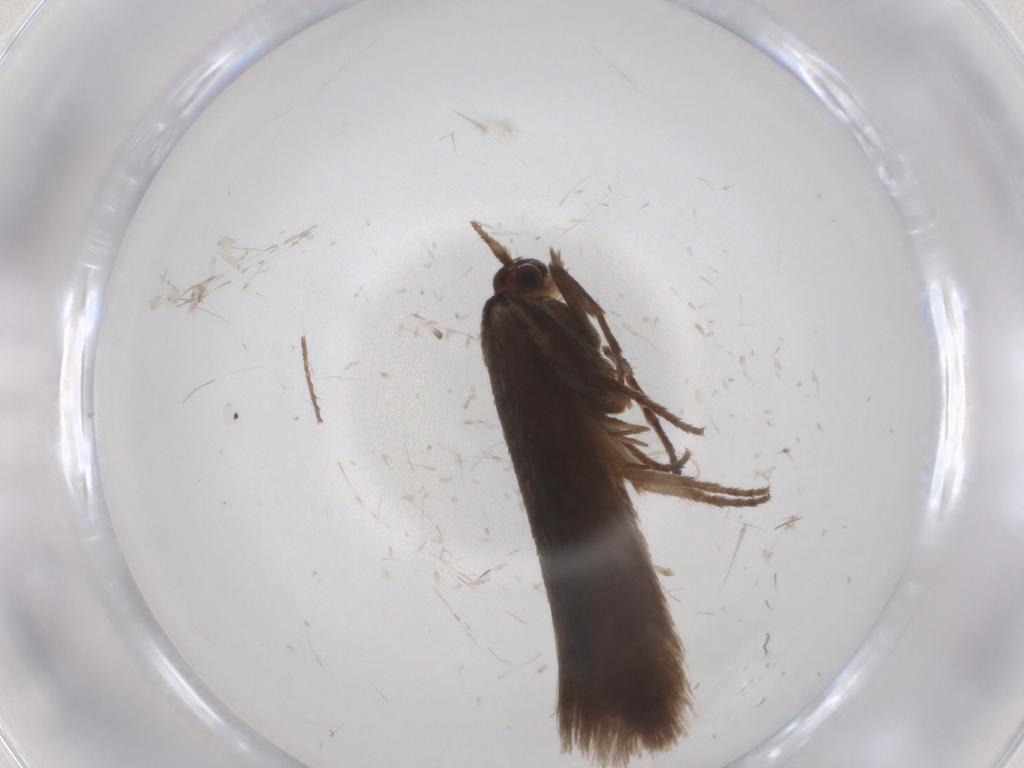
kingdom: Animalia
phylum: Arthropoda
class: Insecta
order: Lepidoptera
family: Limacodidae
